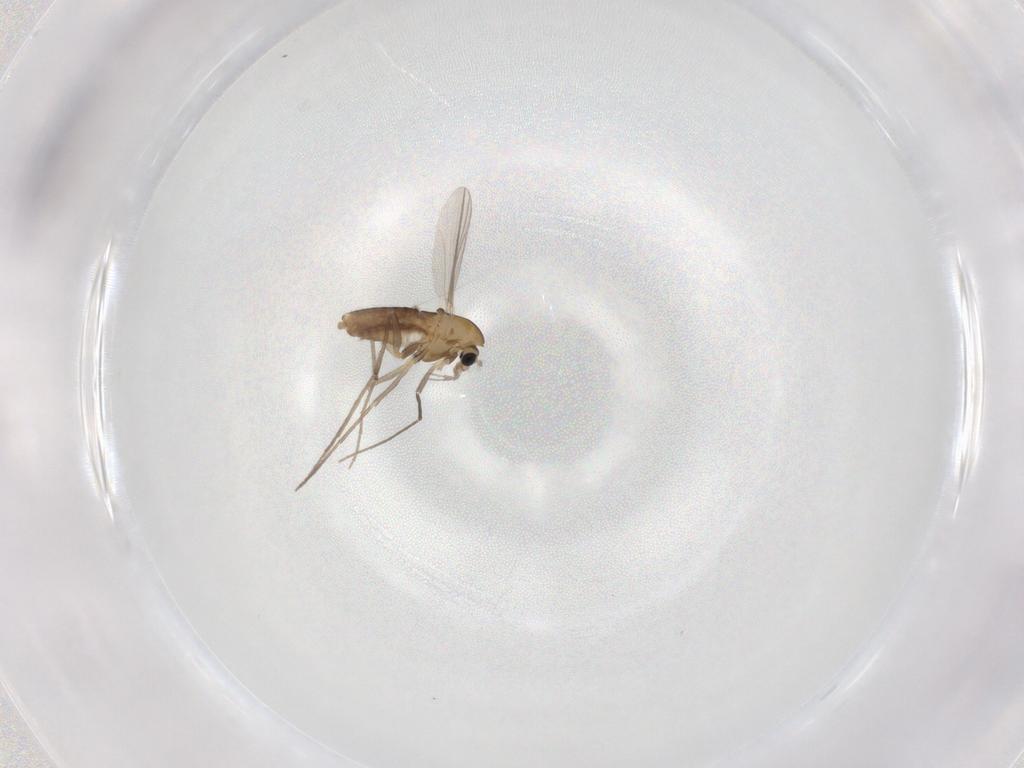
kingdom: Animalia
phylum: Arthropoda
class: Insecta
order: Diptera
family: Chironomidae
